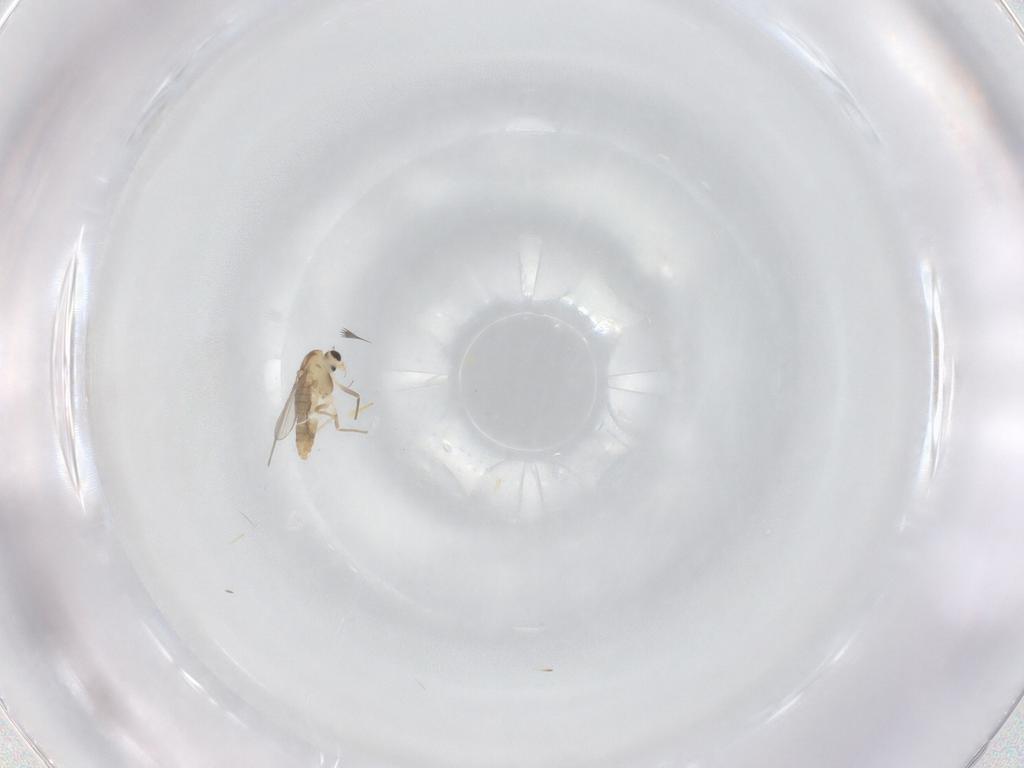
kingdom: Animalia
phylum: Arthropoda
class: Insecta
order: Diptera
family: Chironomidae
